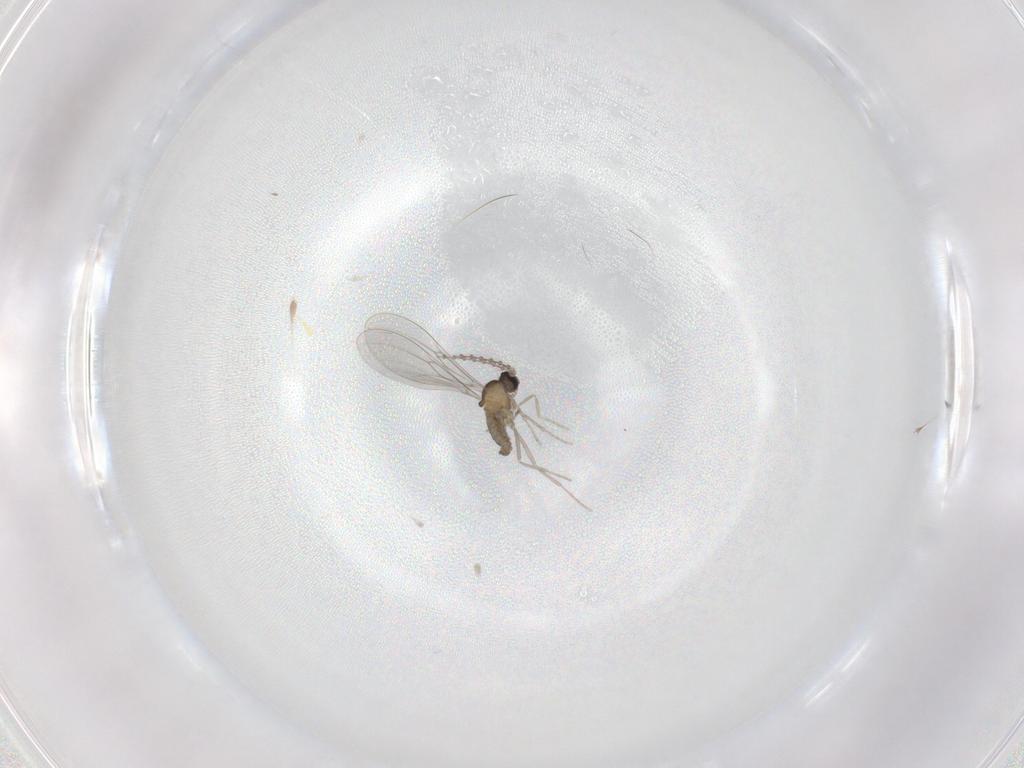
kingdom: Animalia
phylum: Arthropoda
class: Insecta
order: Diptera
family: Cecidomyiidae
